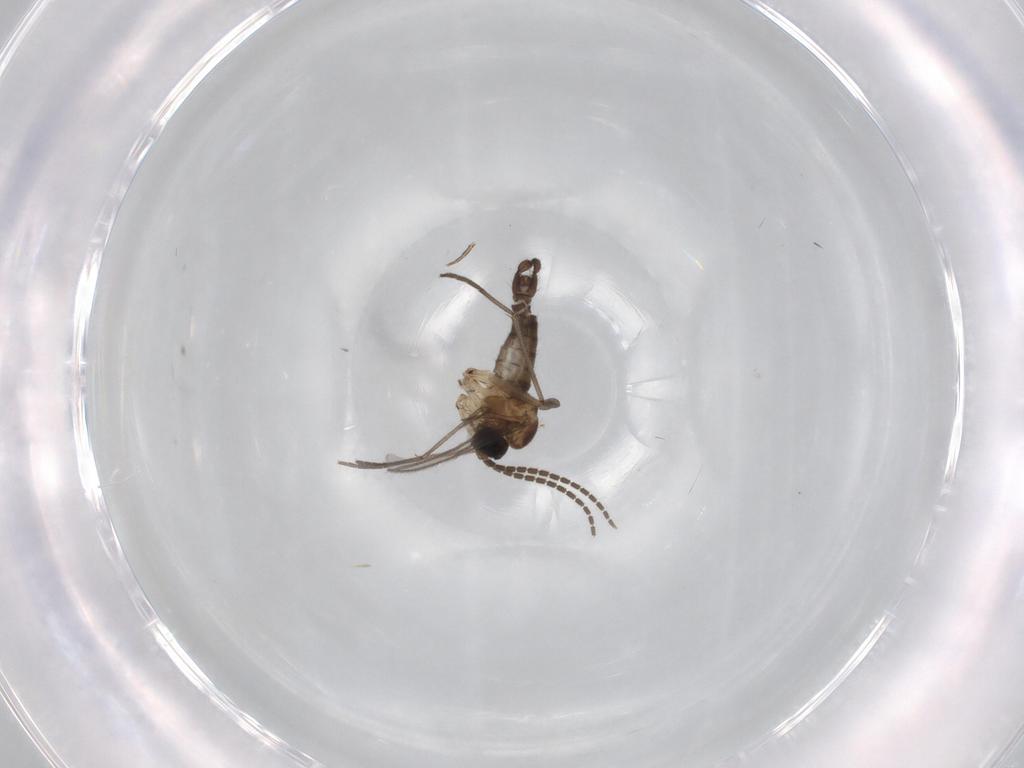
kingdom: Animalia
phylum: Arthropoda
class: Insecta
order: Diptera
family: Sciaridae
